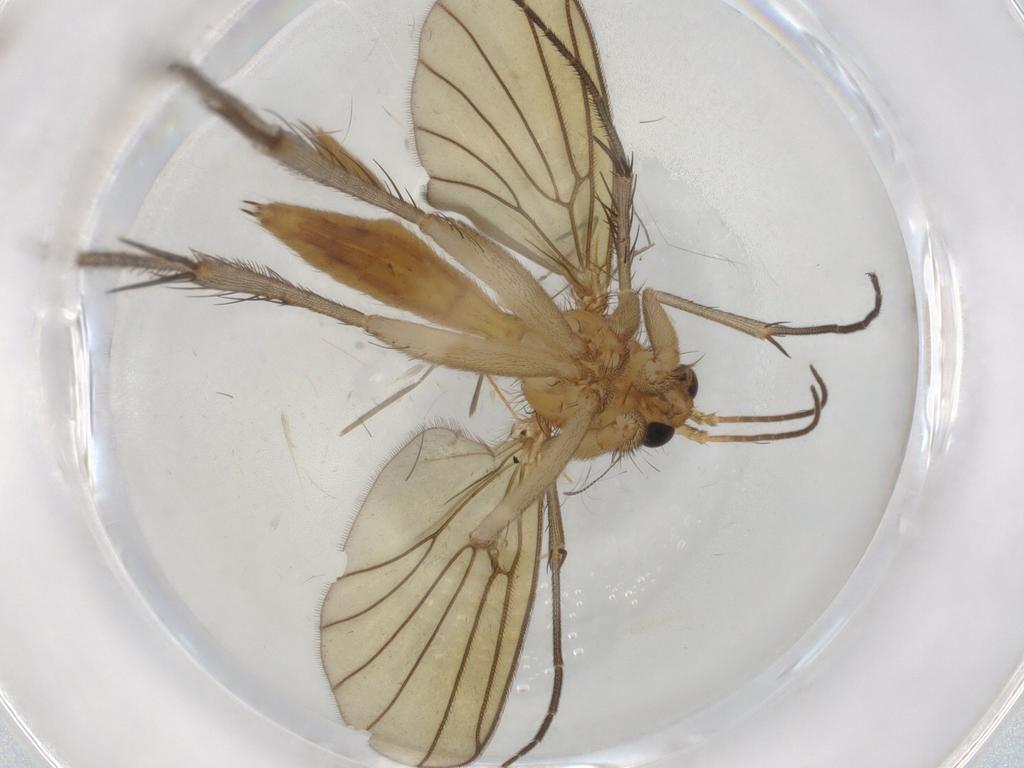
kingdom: Animalia
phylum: Arthropoda
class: Insecta
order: Diptera
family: Mycetophilidae
